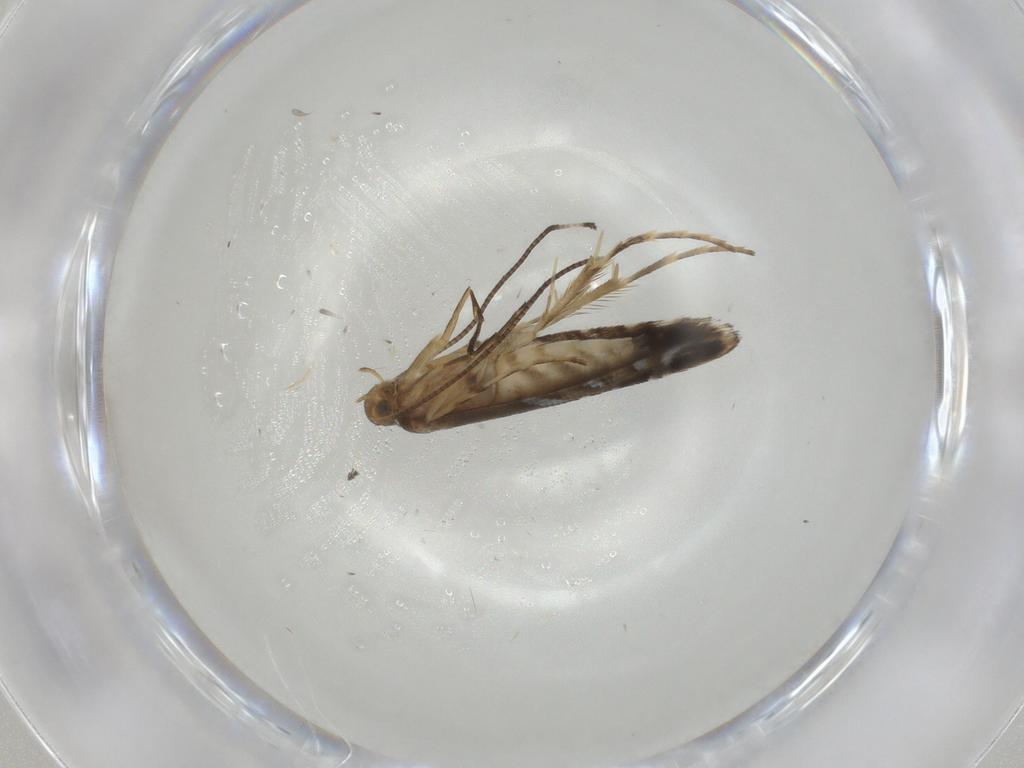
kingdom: Animalia
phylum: Arthropoda
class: Insecta
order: Lepidoptera
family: Gracillariidae
